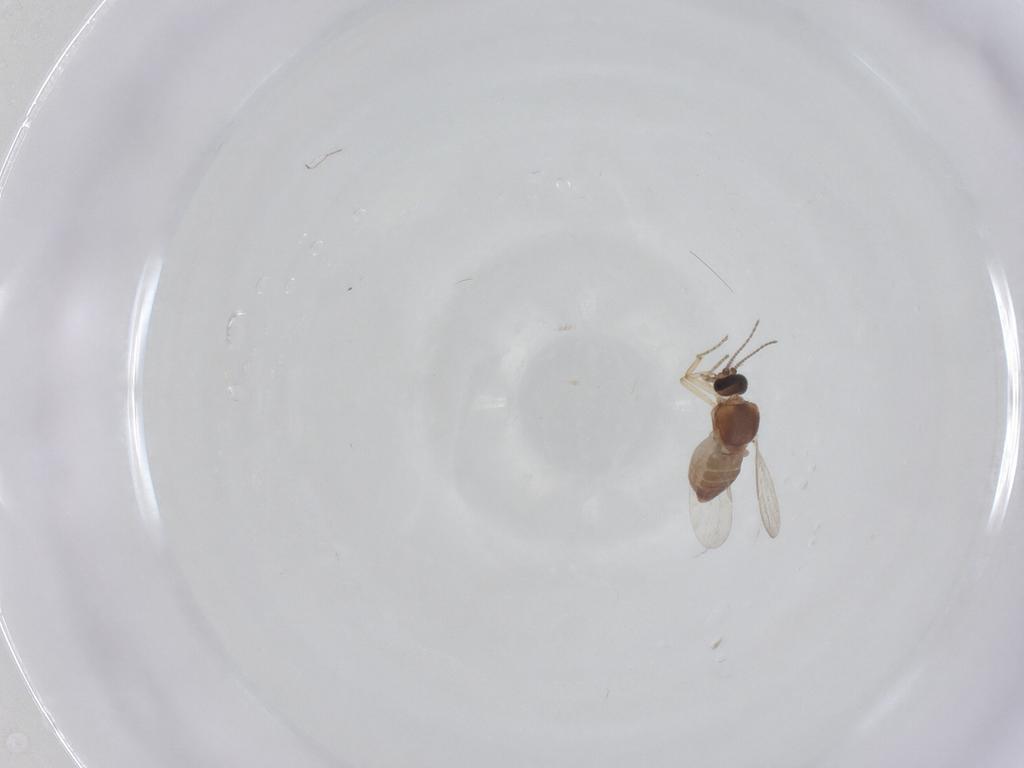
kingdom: Animalia
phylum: Arthropoda
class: Insecta
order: Diptera
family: Ceratopogonidae
